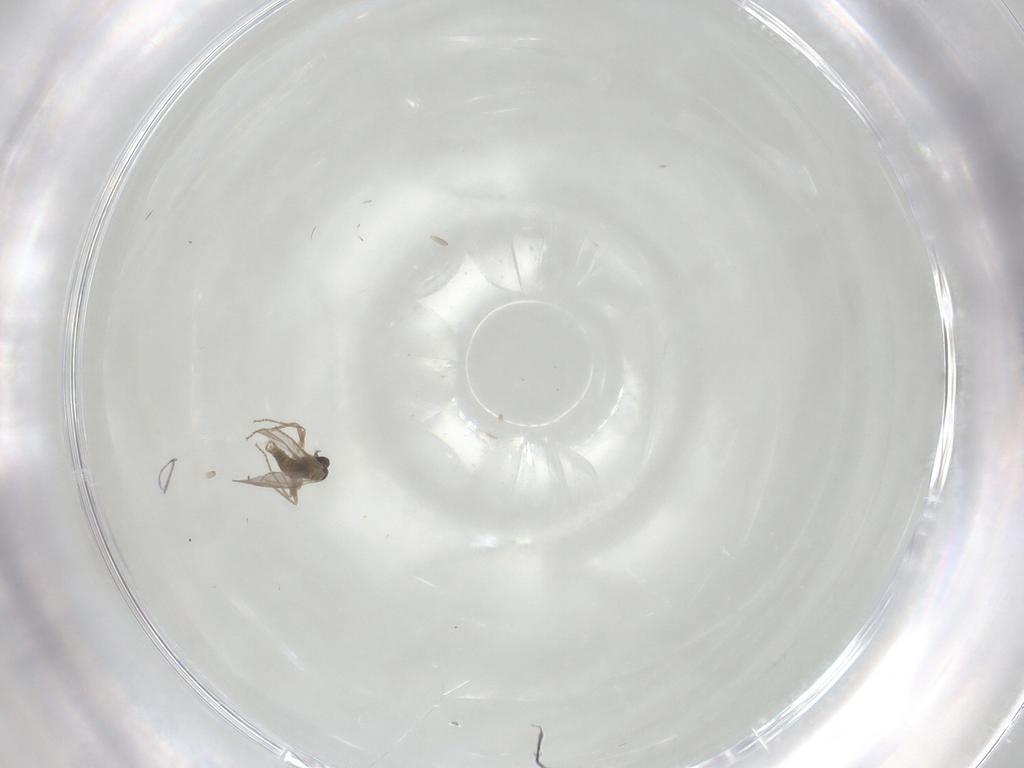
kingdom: Animalia
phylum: Arthropoda
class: Insecta
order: Diptera
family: Cecidomyiidae
